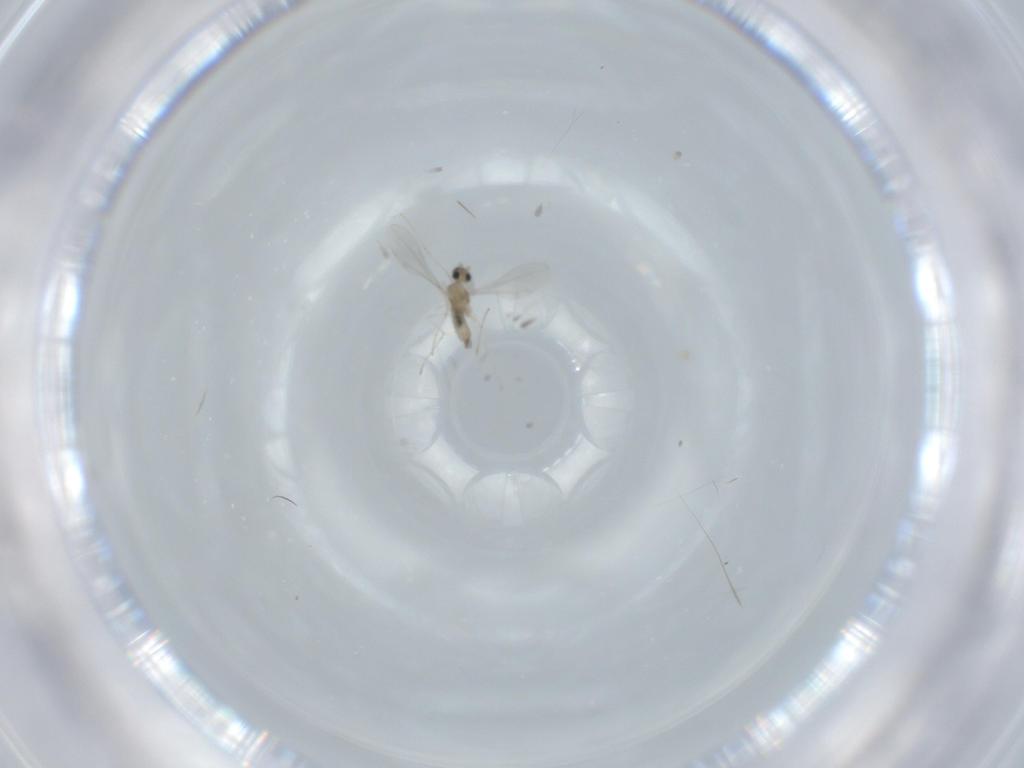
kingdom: Animalia
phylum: Arthropoda
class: Insecta
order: Diptera
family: Cecidomyiidae
